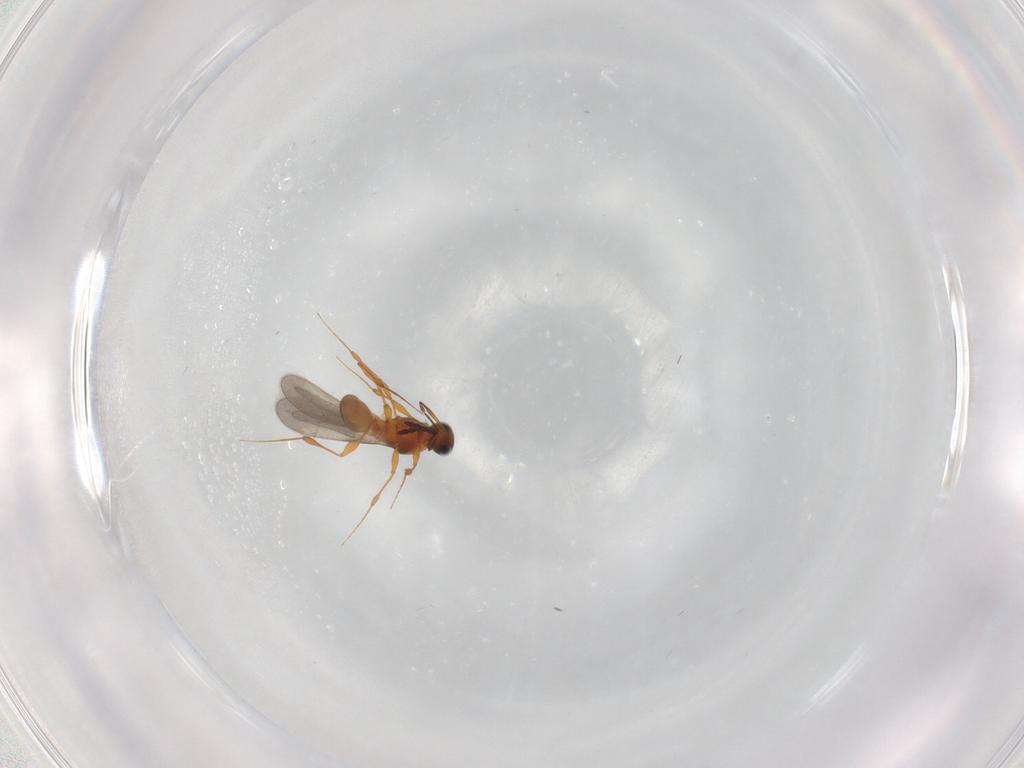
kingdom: Animalia
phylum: Arthropoda
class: Insecta
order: Hymenoptera
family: Platygastridae
